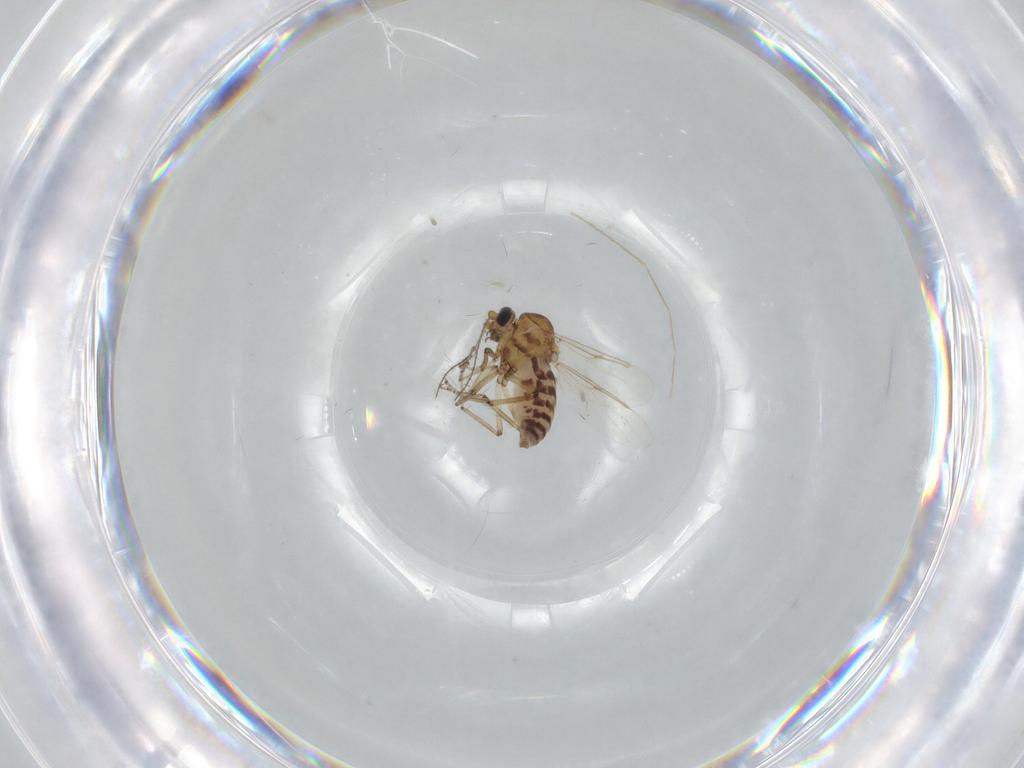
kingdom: Animalia
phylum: Arthropoda
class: Insecta
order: Diptera
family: Ceratopogonidae
